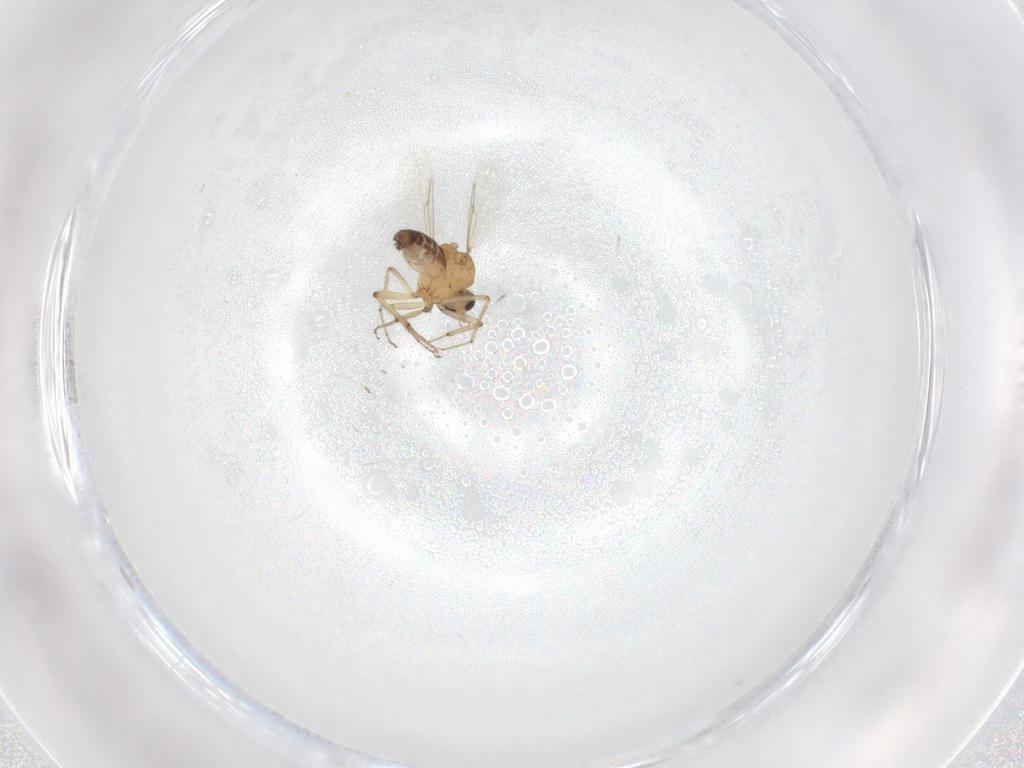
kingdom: Animalia
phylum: Arthropoda
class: Insecta
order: Diptera
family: Ceratopogonidae
